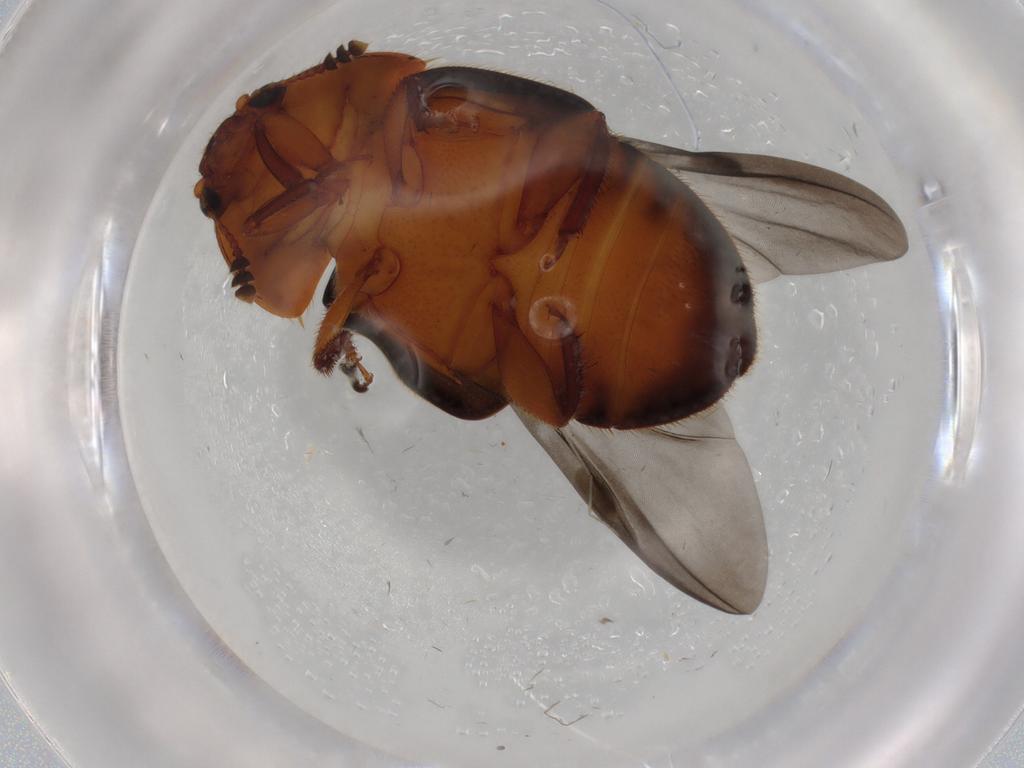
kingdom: Animalia
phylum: Arthropoda
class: Insecta
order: Coleoptera
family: Nitidulidae
